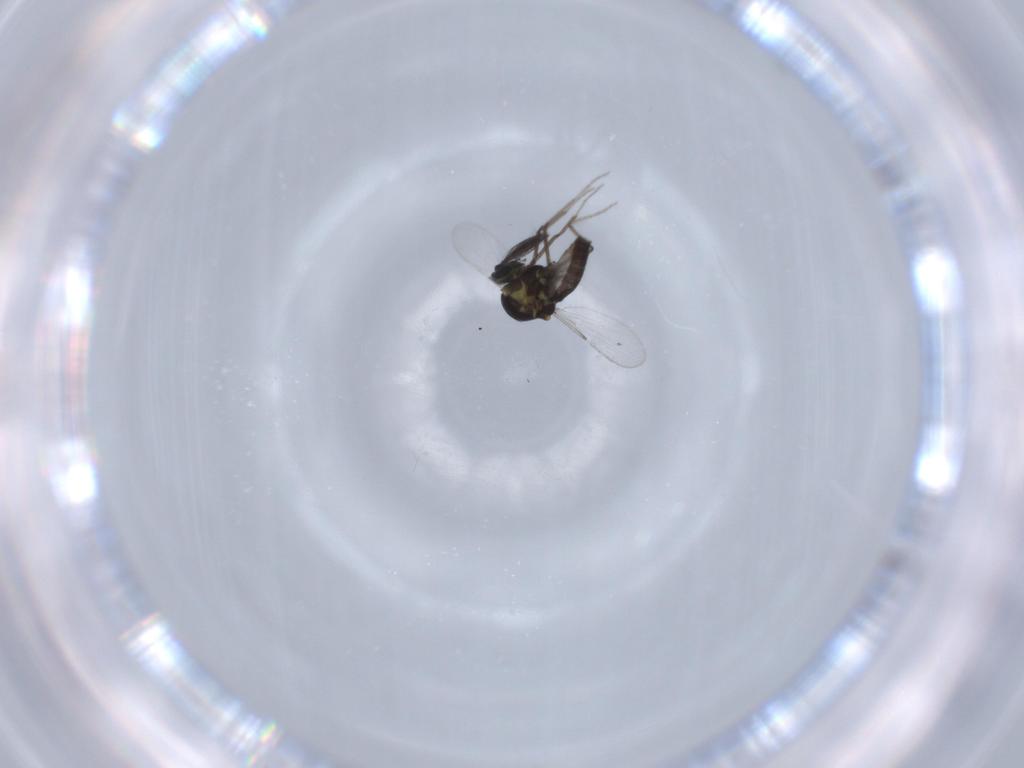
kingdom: Animalia
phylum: Arthropoda
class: Insecta
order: Diptera
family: Ceratopogonidae
